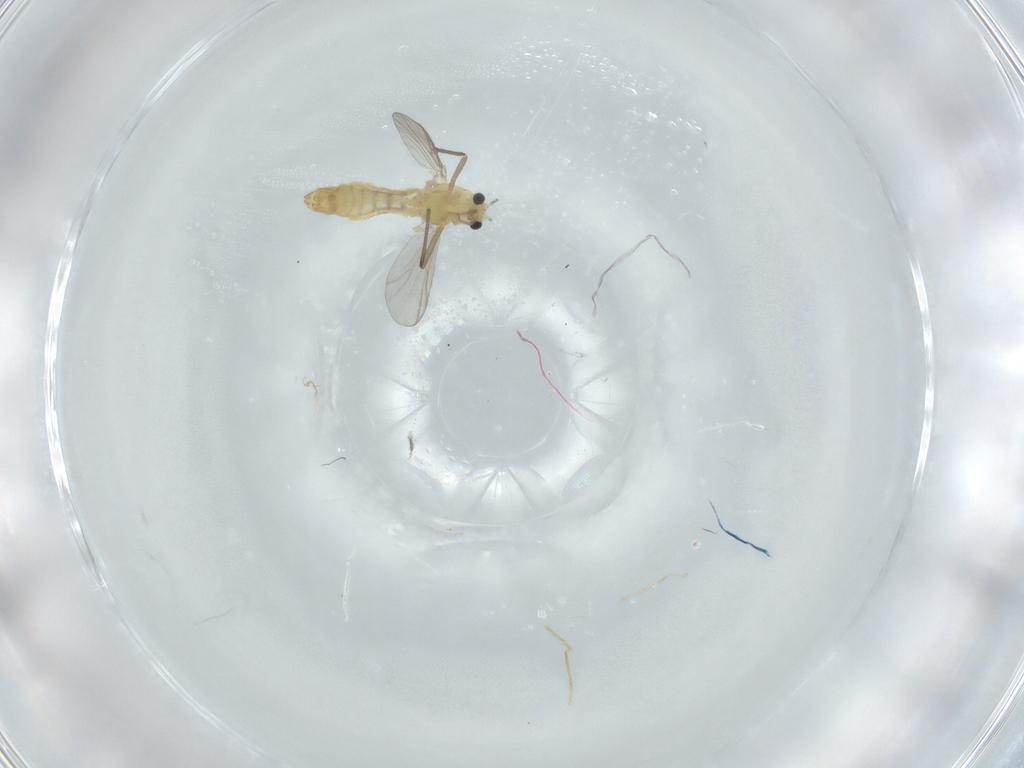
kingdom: Animalia
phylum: Arthropoda
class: Insecta
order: Diptera
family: Chironomidae
